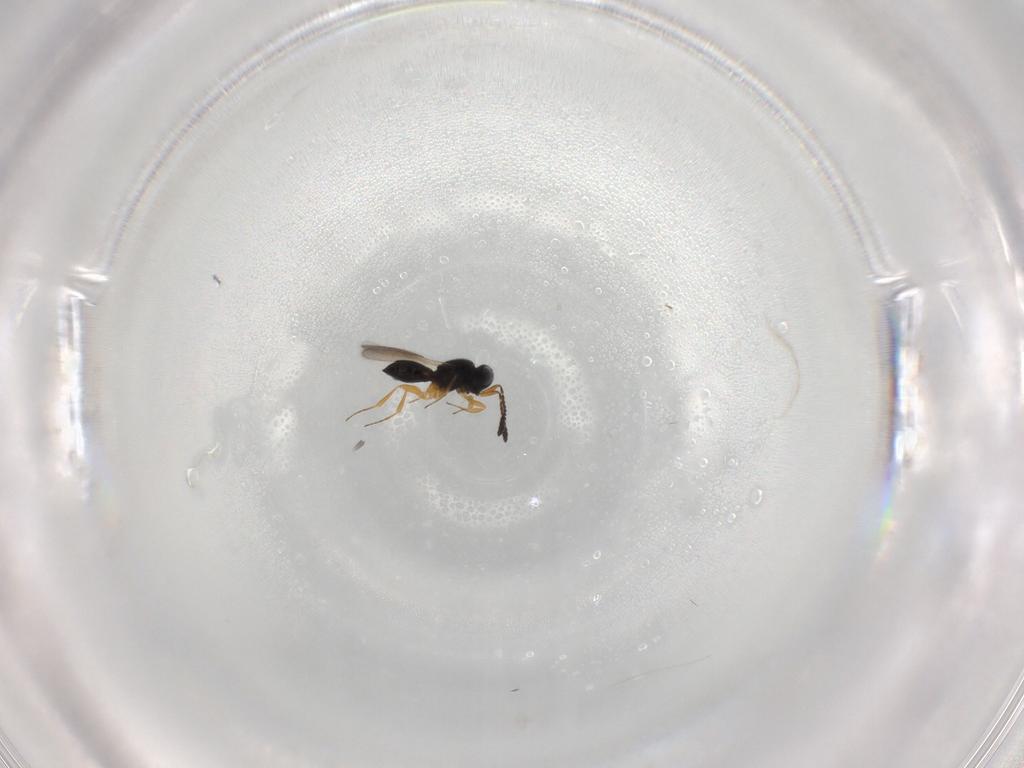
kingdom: Animalia
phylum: Arthropoda
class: Insecta
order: Hymenoptera
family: Scelionidae
